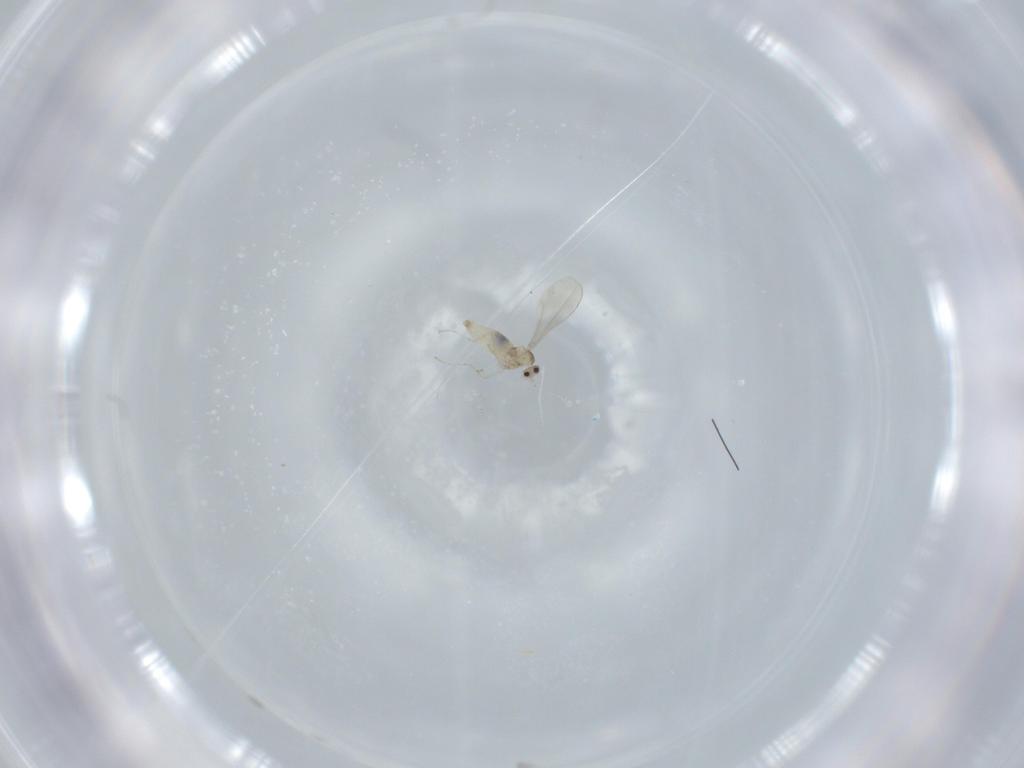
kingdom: Animalia
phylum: Arthropoda
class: Insecta
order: Diptera
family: Cecidomyiidae
